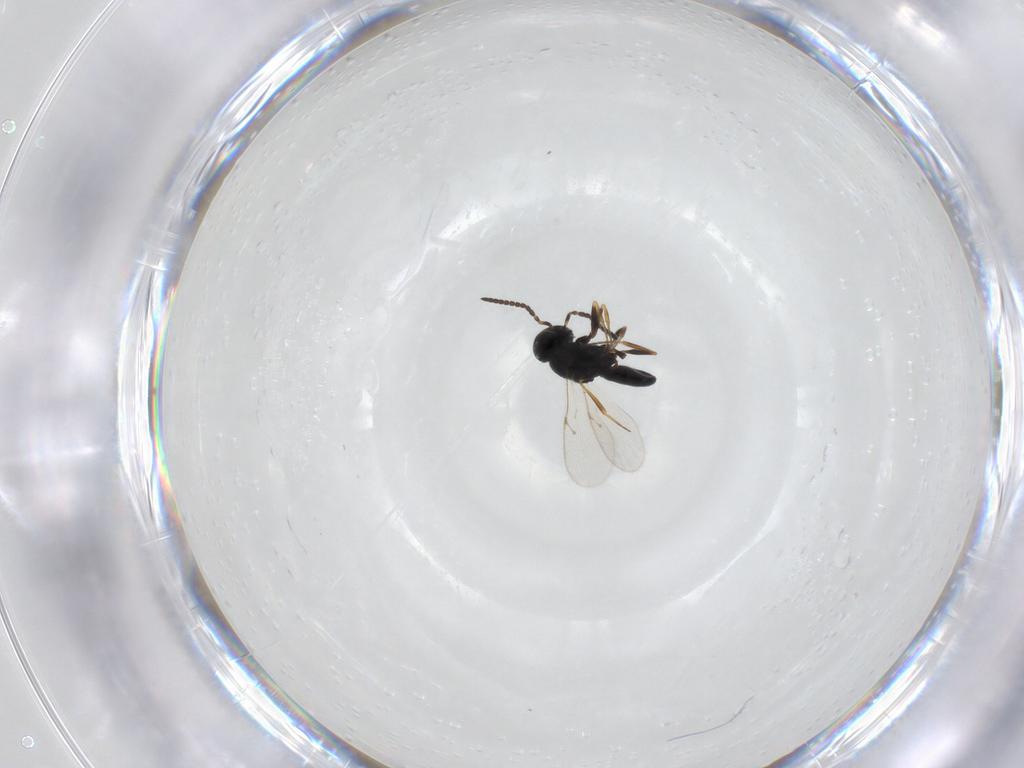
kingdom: Animalia
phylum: Arthropoda
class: Insecta
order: Hymenoptera
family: Scelionidae
